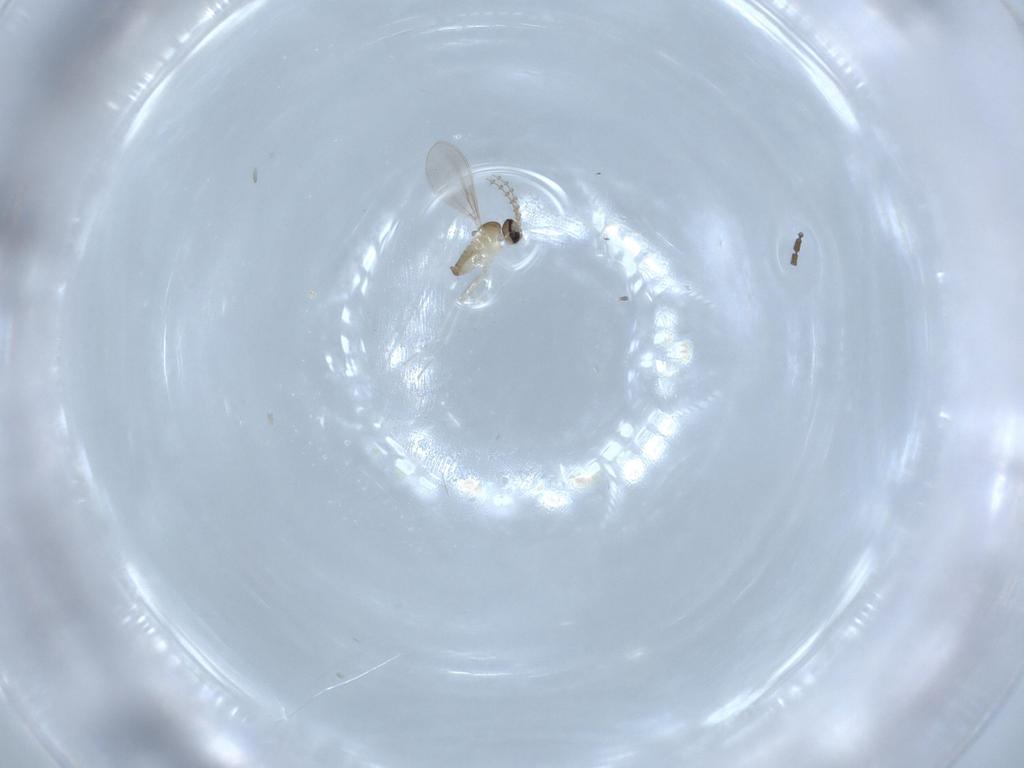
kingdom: Animalia
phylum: Arthropoda
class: Insecta
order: Diptera
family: Cecidomyiidae
